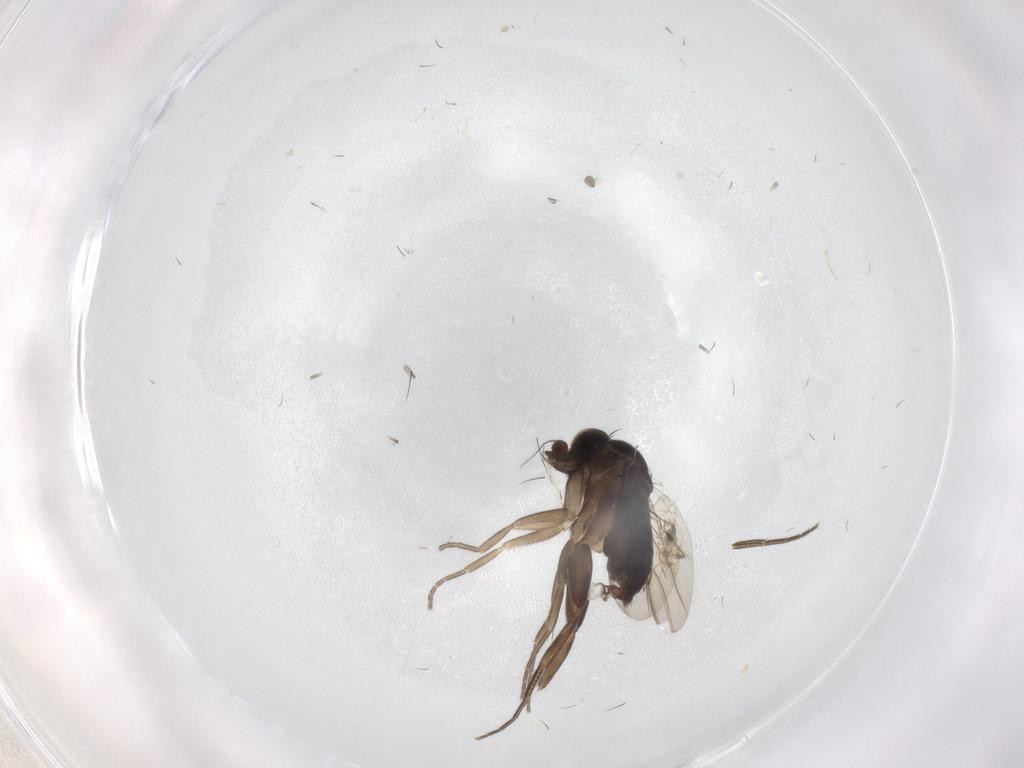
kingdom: Animalia
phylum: Arthropoda
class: Insecta
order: Diptera
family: Phoridae
